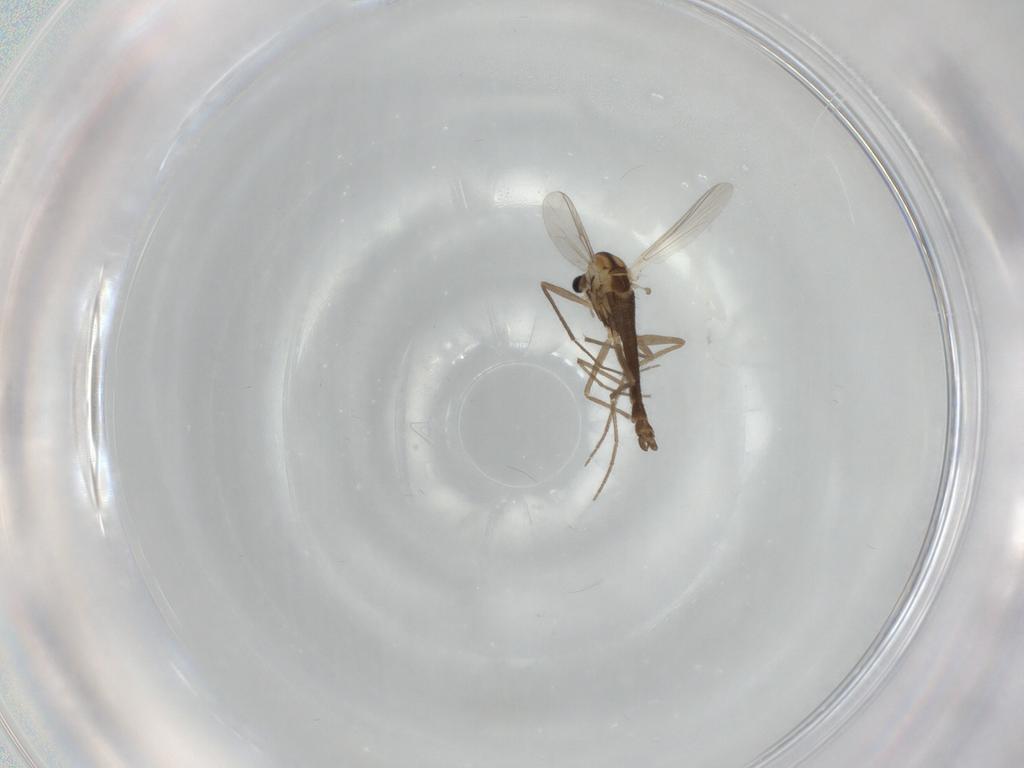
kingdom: Animalia
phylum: Arthropoda
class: Insecta
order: Diptera
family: Chironomidae
